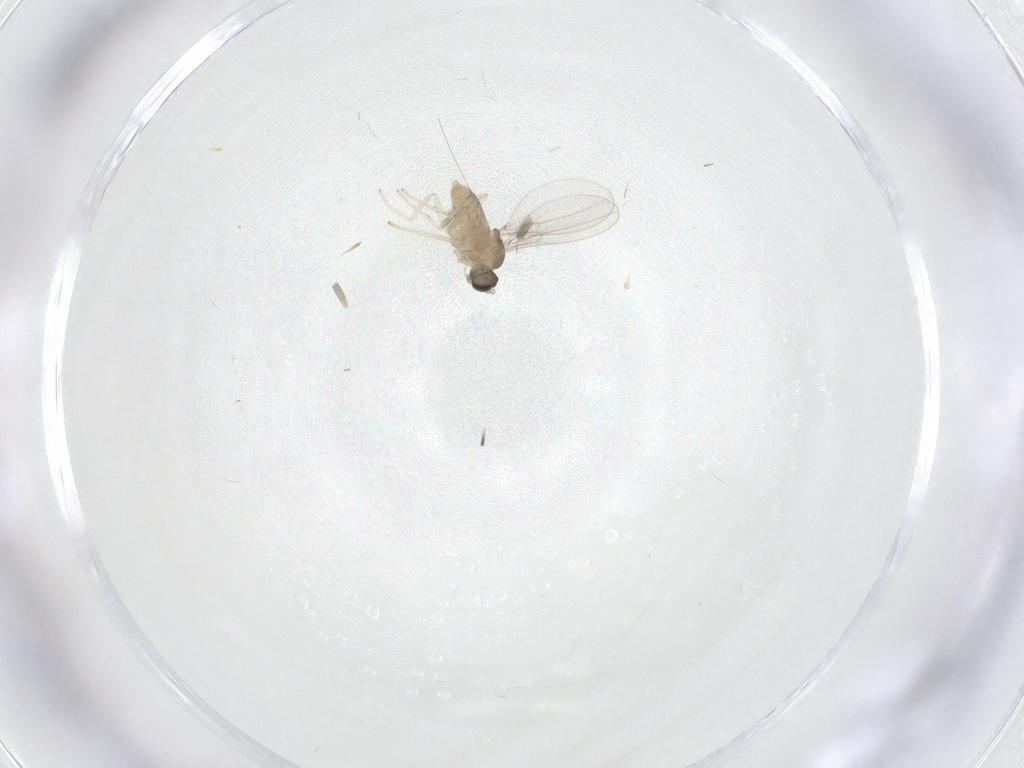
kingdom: Animalia
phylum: Arthropoda
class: Insecta
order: Diptera
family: Cecidomyiidae
